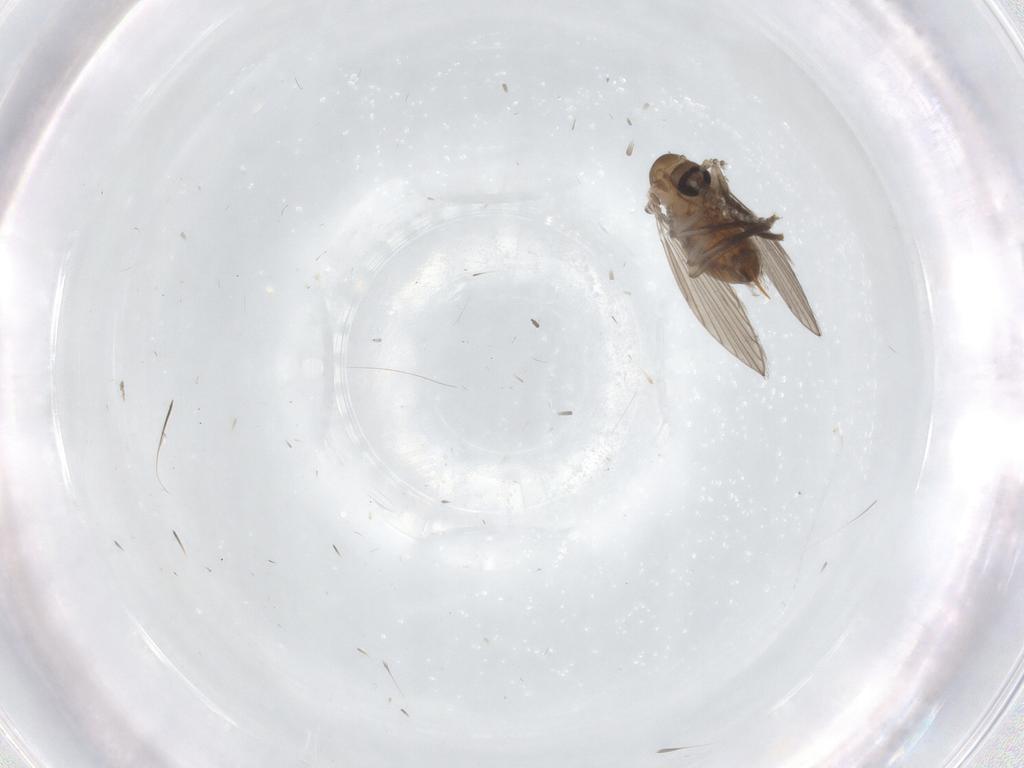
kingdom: Animalia
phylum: Arthropoda
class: Insecta
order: Diptera
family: Psychodidae
